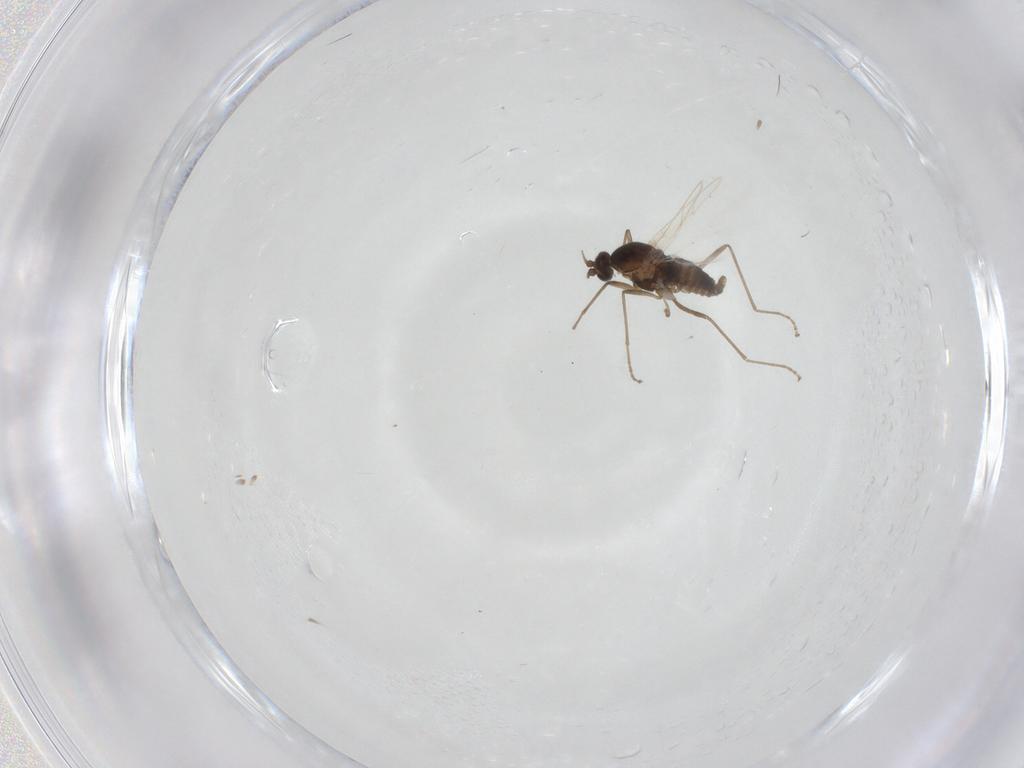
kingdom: Animalia
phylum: Arthropoda
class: Insecta
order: Diptera
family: Cecidomyiidae
